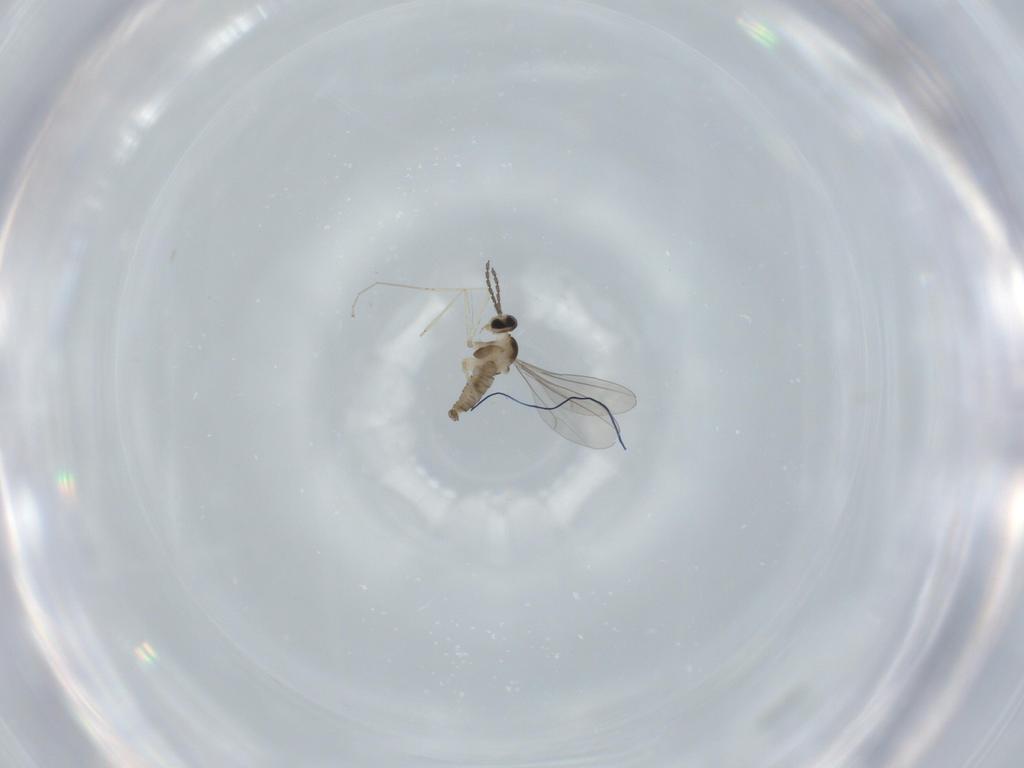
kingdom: Animalia
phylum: Arthropoda
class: Insecta
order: Diptera
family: Cecidomyiidae
